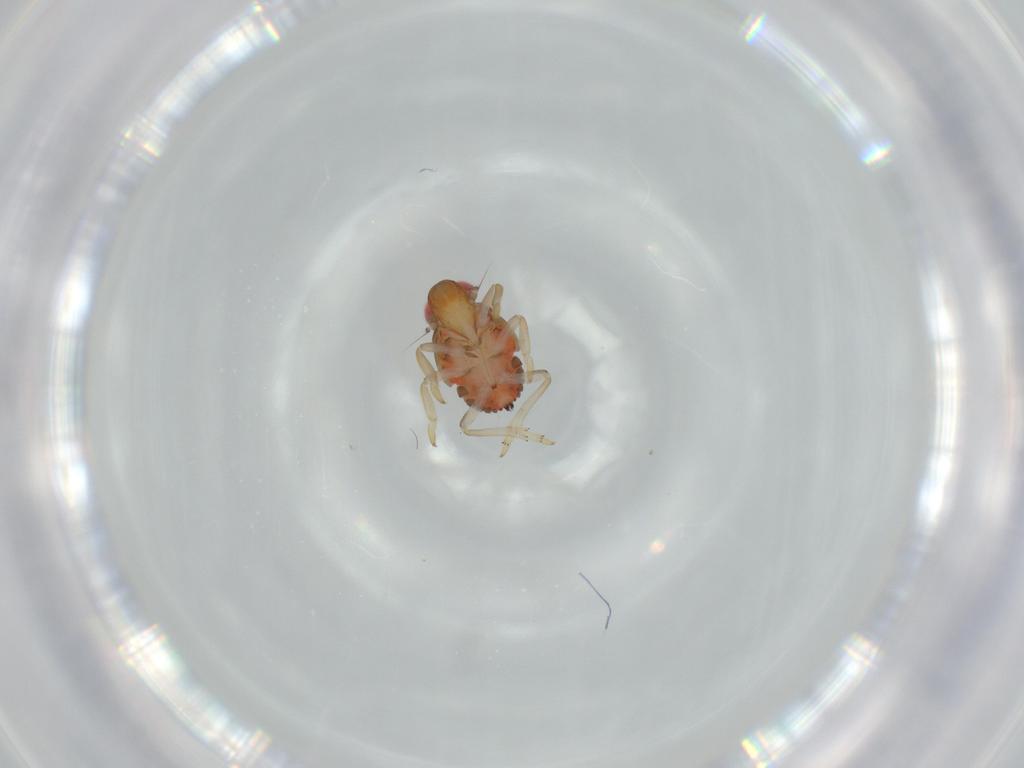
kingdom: Animalia
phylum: Arthropoda
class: Insecta
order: Hemiptera
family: Issidae
